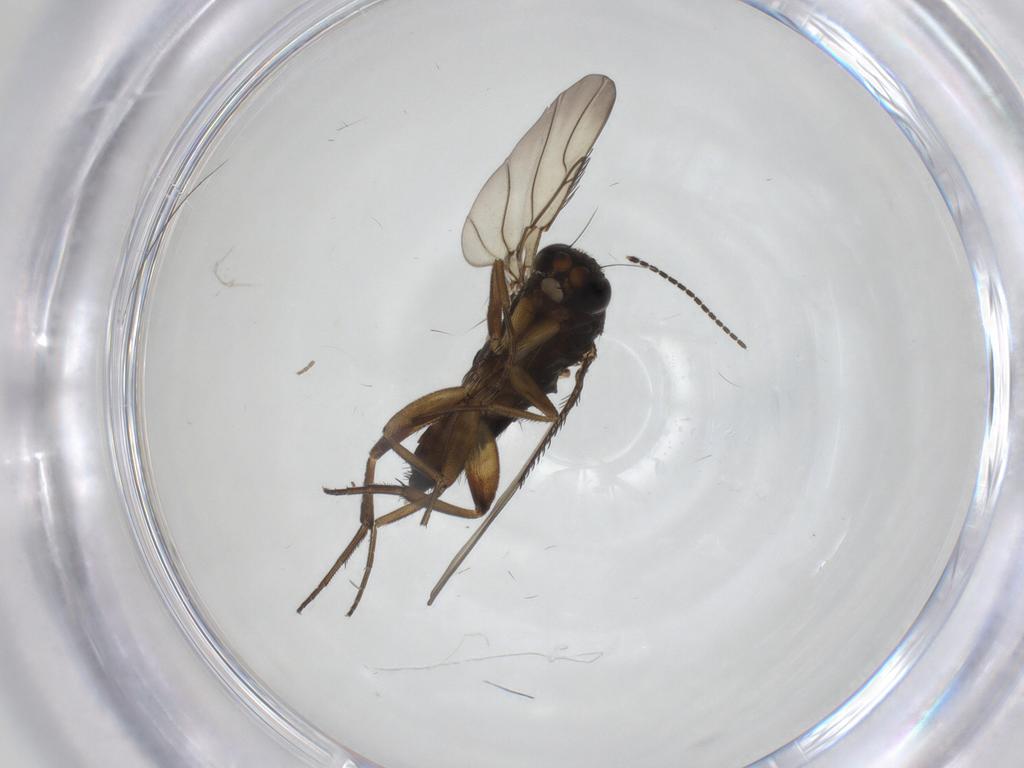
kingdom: Animalia
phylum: Arthropoda
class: Insecta
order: Diptera
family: Phoridae
